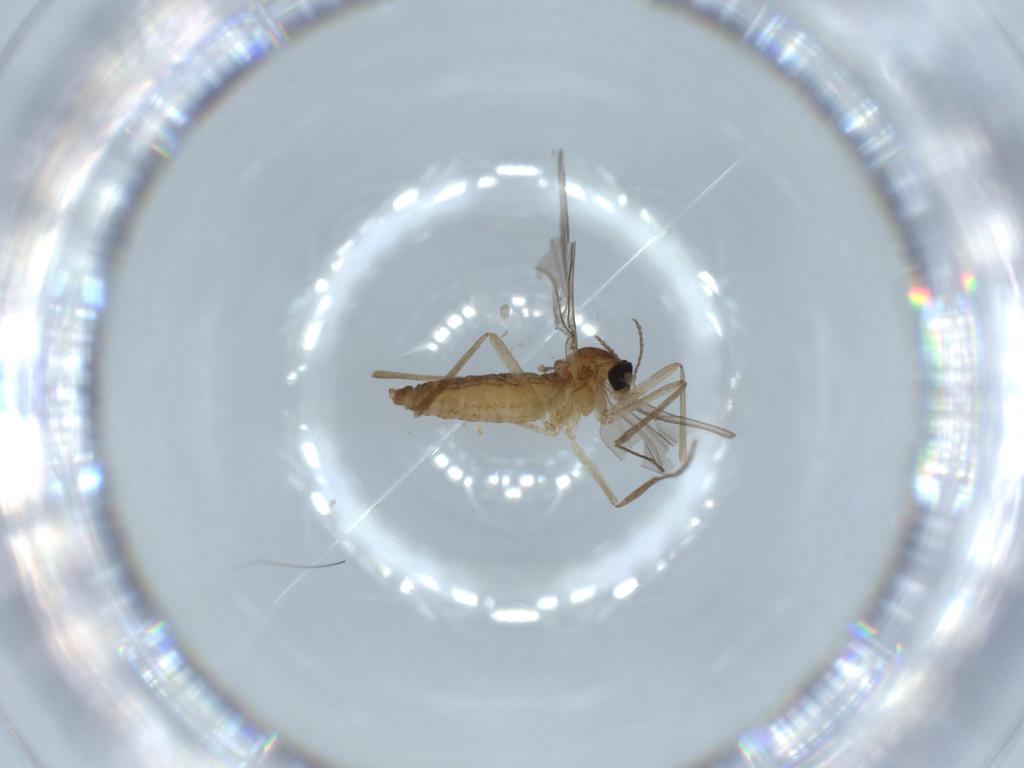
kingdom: Animalia
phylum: Arthropoda
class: Insecta
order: Diptera
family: Cecidomyiidae
